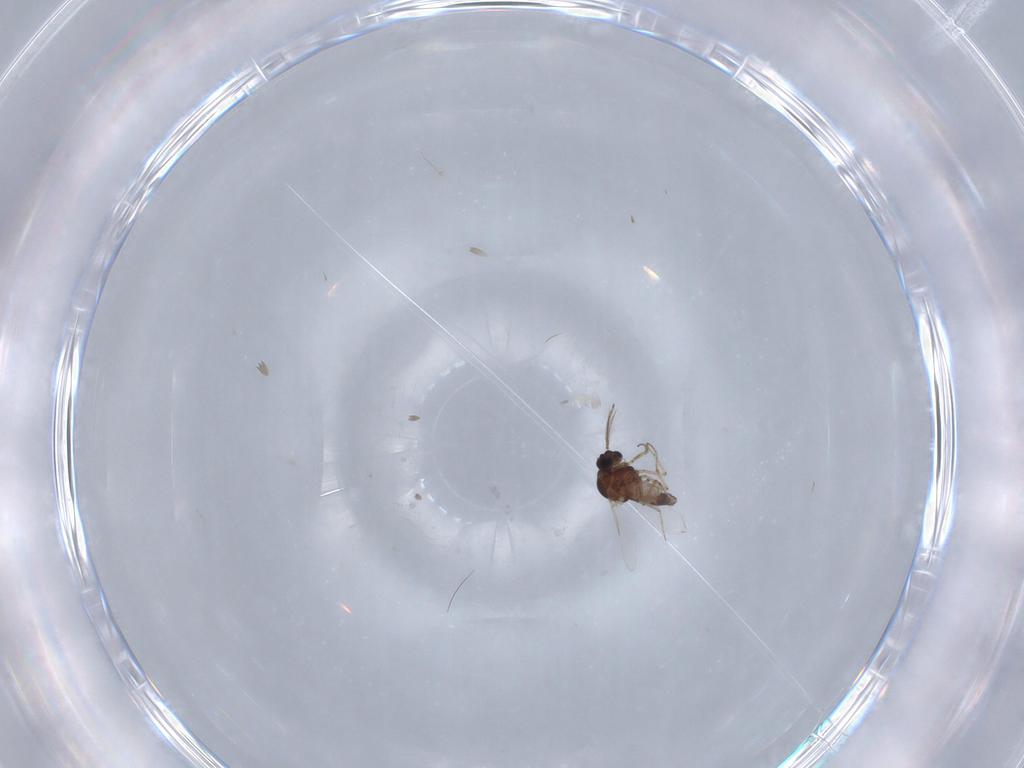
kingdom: Animalia
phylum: Arthropoda
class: Insecta
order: Diptera
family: Ceratopogonidae
